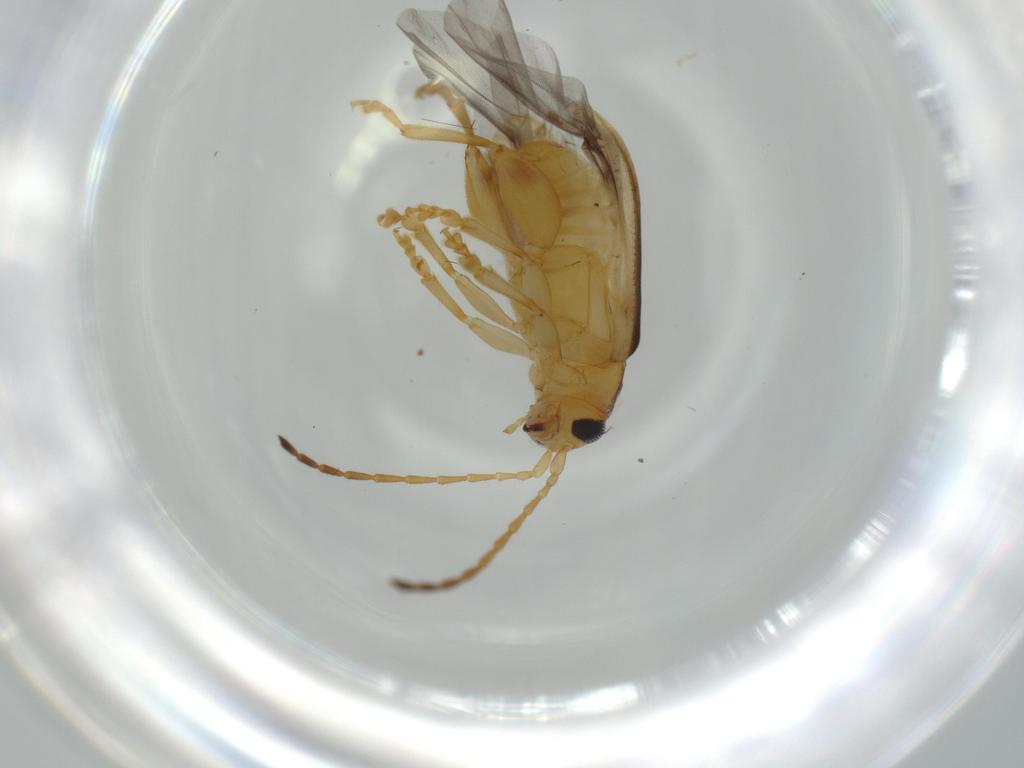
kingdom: Animalia
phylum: Arthropoda
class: Insecta
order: Coleoptera
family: Chrysomelidae
